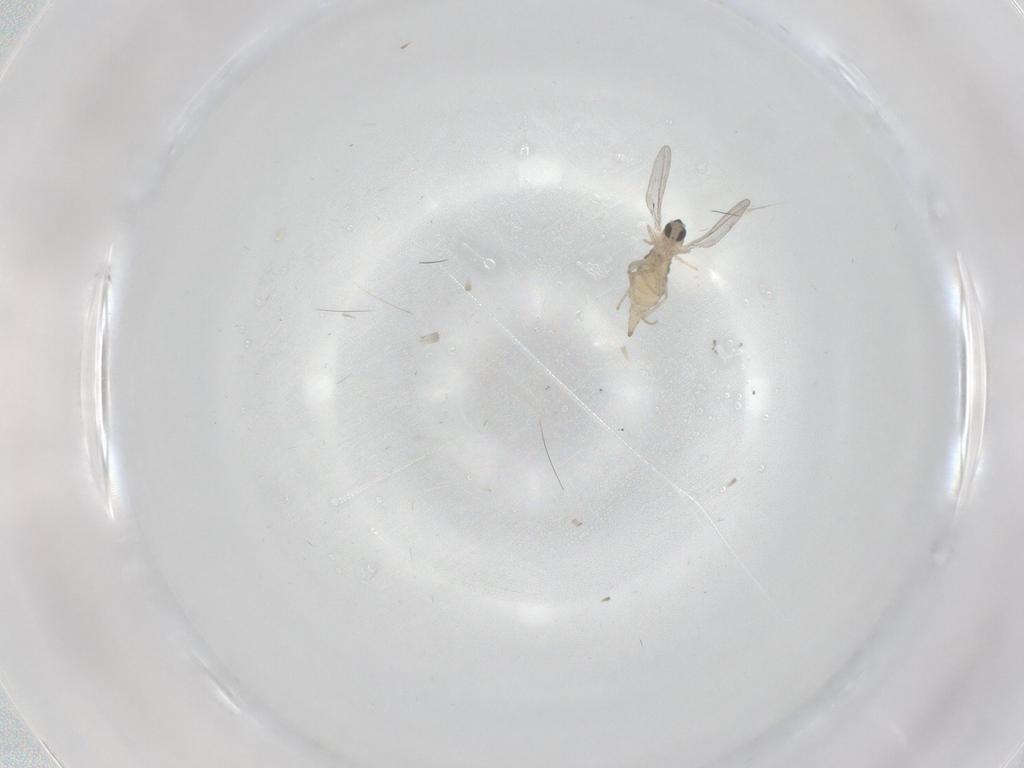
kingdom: Animalia
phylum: Arthropoda
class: Insecta
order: Diptera
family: Cecidomyiidae
